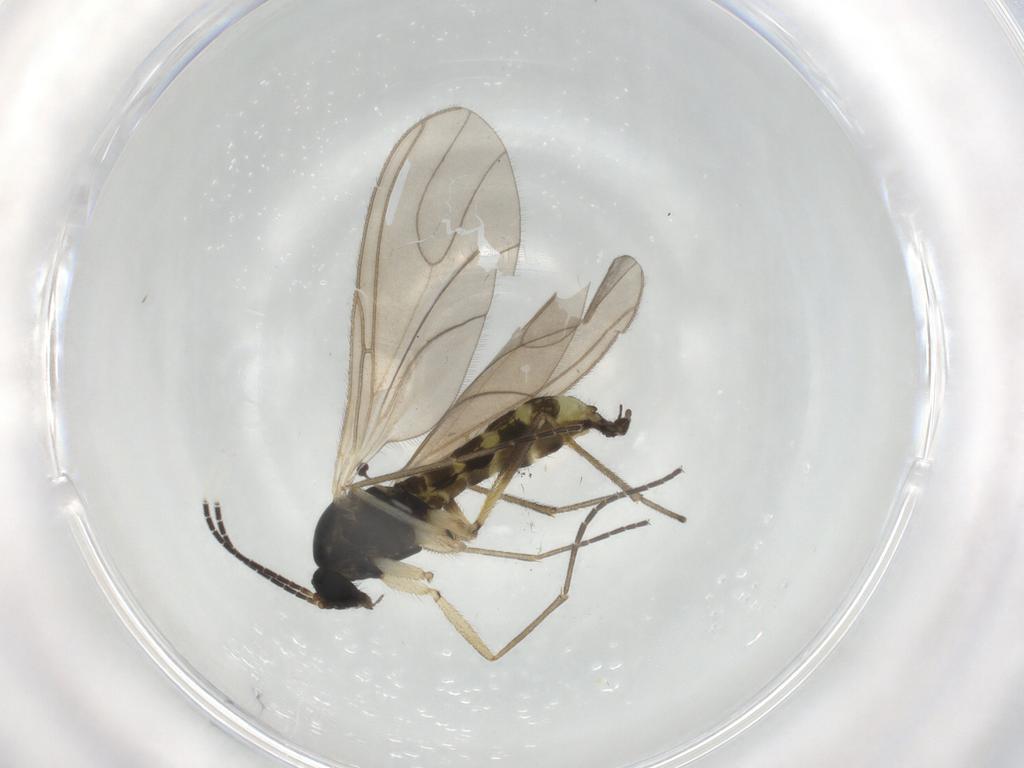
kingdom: Animalia
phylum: Arthropoda
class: Insecta
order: Diptera
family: Sciaridae
